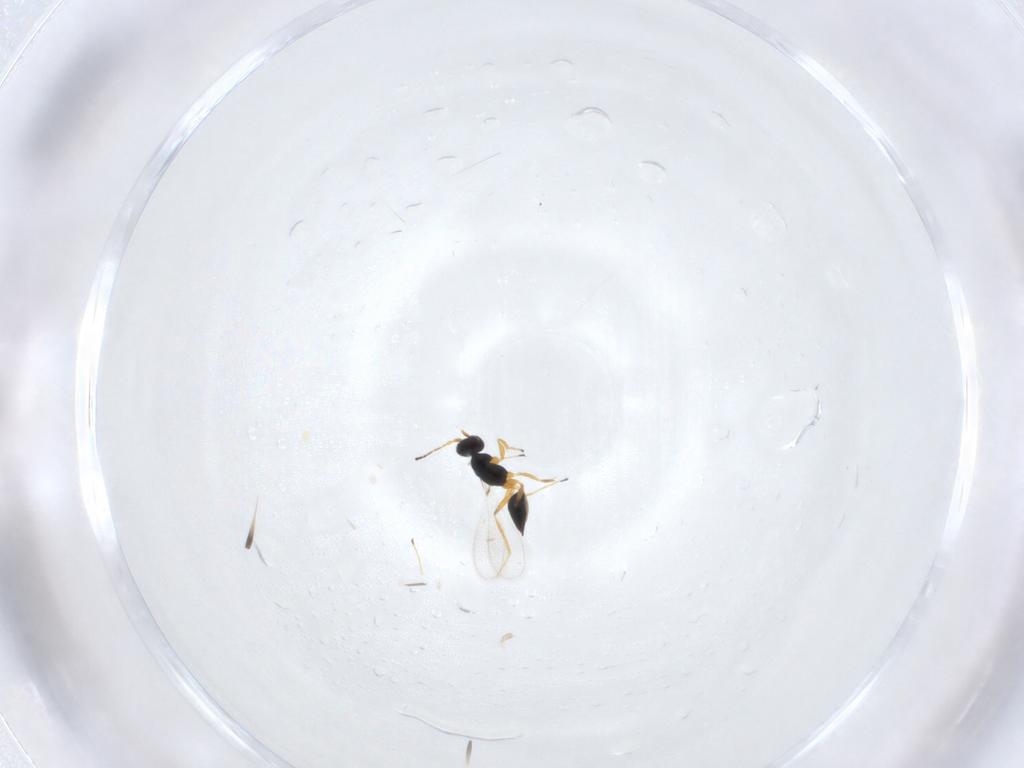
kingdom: Animalia
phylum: Arthropoda
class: Insecta
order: Hymenoptera
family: Mymaridae
